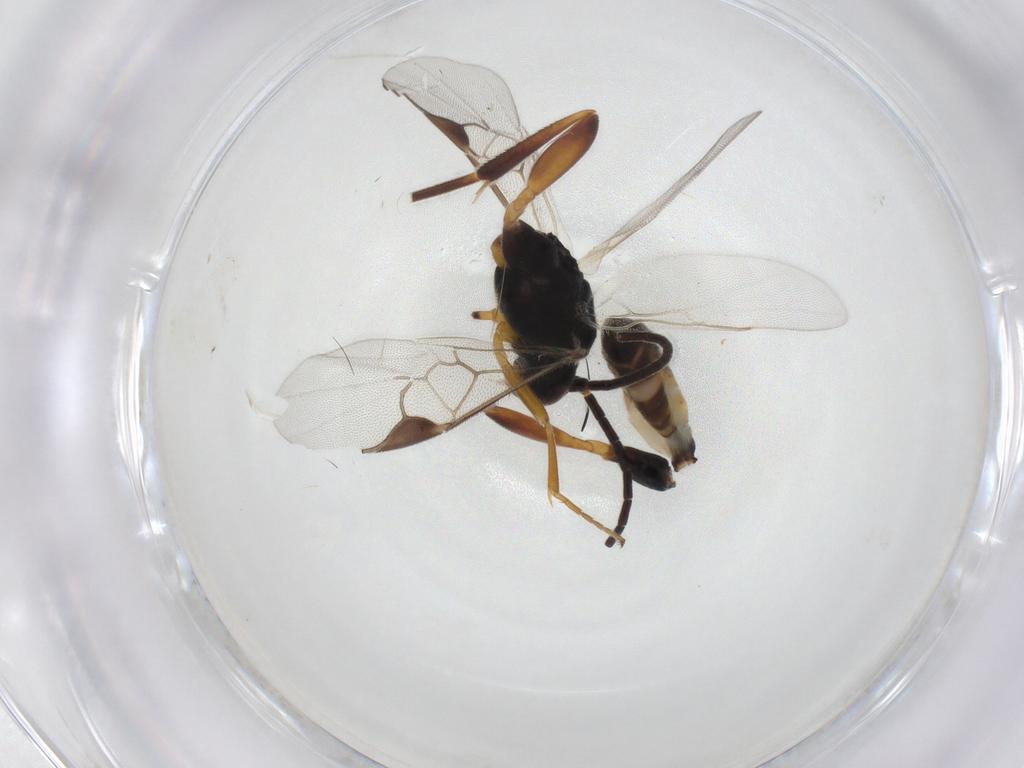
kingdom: Animalia
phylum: Arthropoda
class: Insecta
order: Hymenoptera
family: Braconidae
